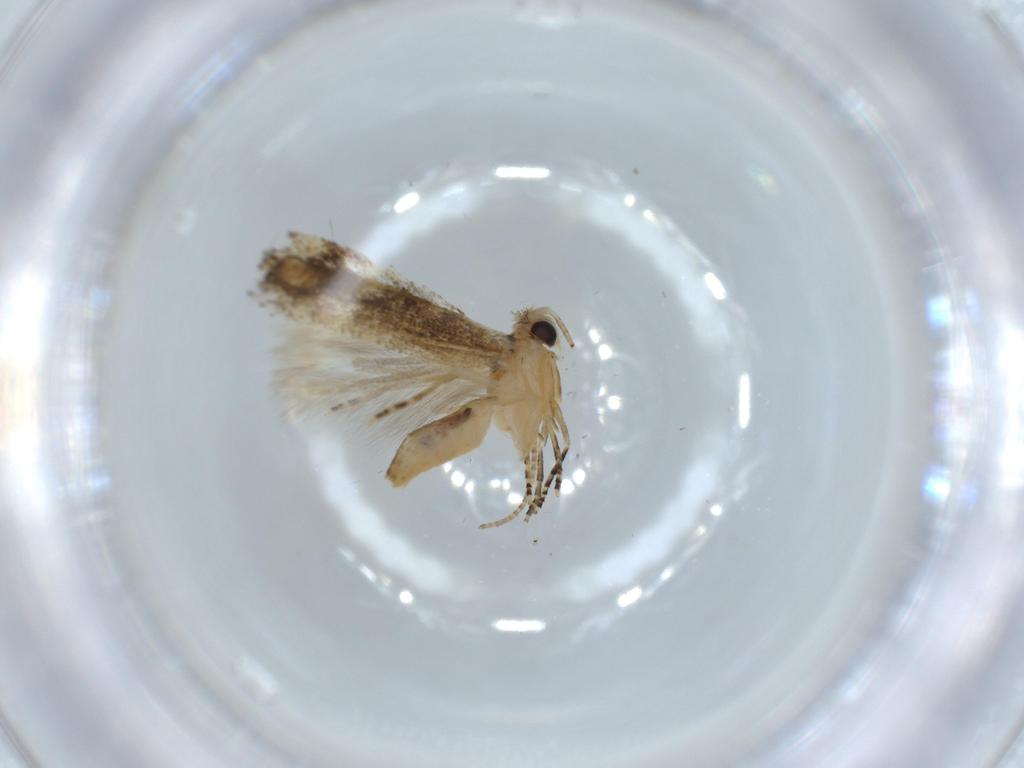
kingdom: Animalia
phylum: Arthropoda
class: Insecta
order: Lepidoptera
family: Bucculatricidae
